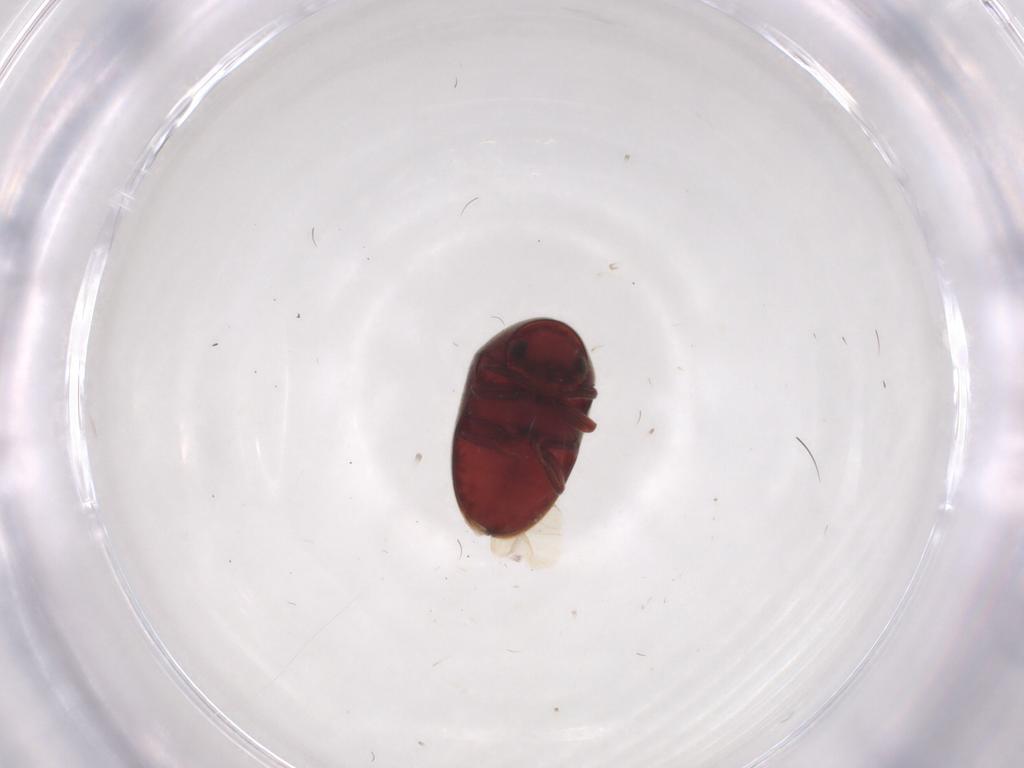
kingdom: Animalia
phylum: Arthropoda
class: Insecta
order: Coleoptera
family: Anobiidae
